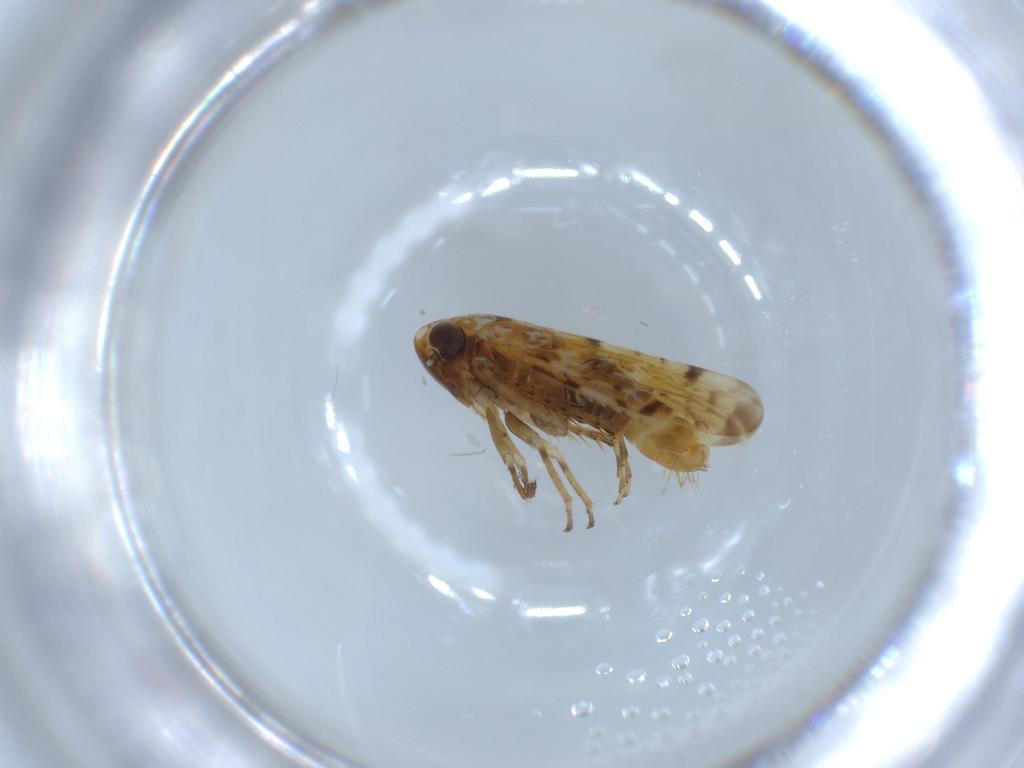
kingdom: Animalia
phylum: Arthropoda
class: Insecta
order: Hemiptera
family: Cicadellidae
